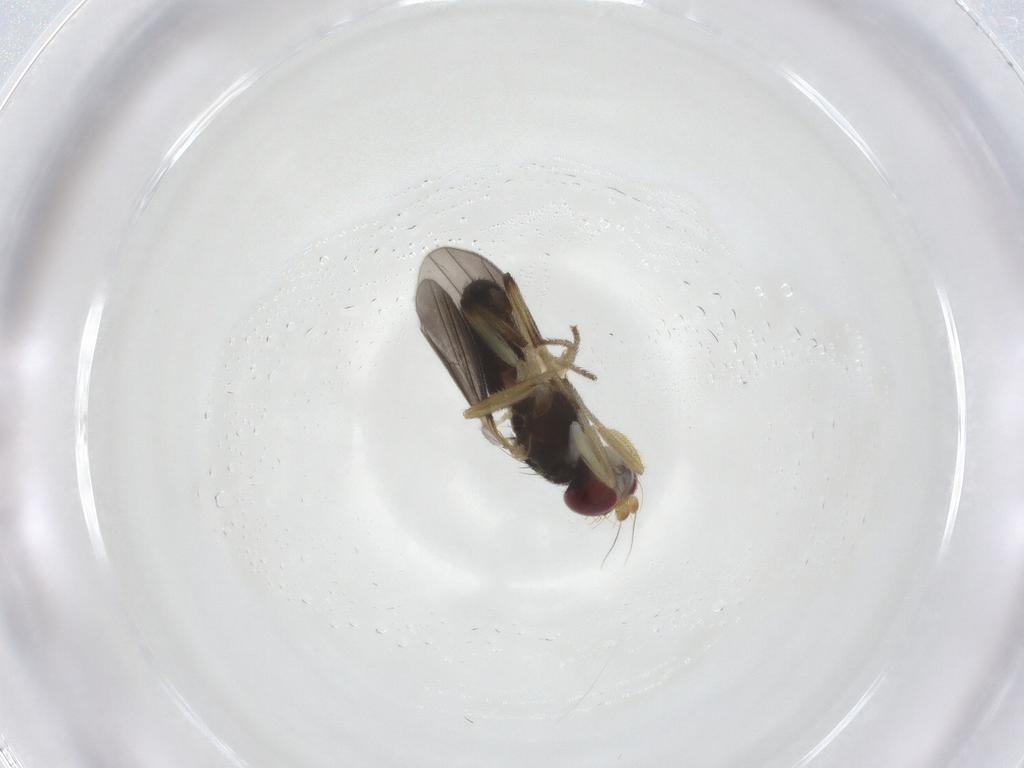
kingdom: Animalia
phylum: Arthropoda
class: Insecta
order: Diptera
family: Clusiidae
